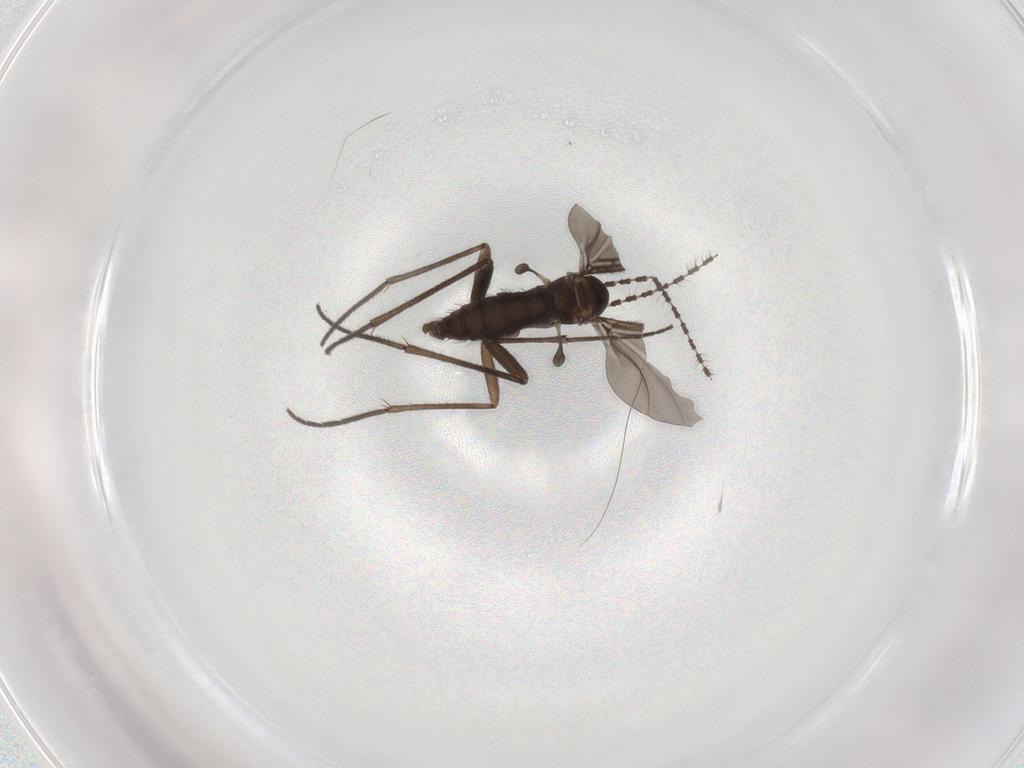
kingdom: Animalia
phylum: Arthropoda
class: Insecta
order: Diptera
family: Sciaridae
